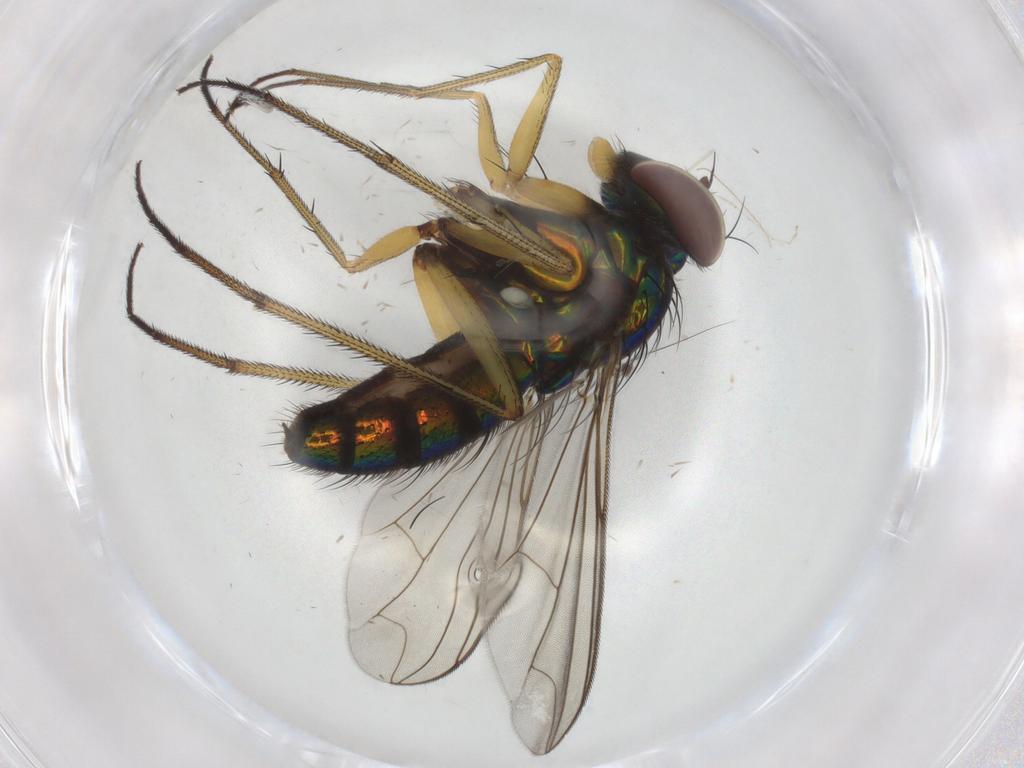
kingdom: Animalia
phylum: Arthropoda
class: Insecta
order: Diptera
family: Dolichopodidae
